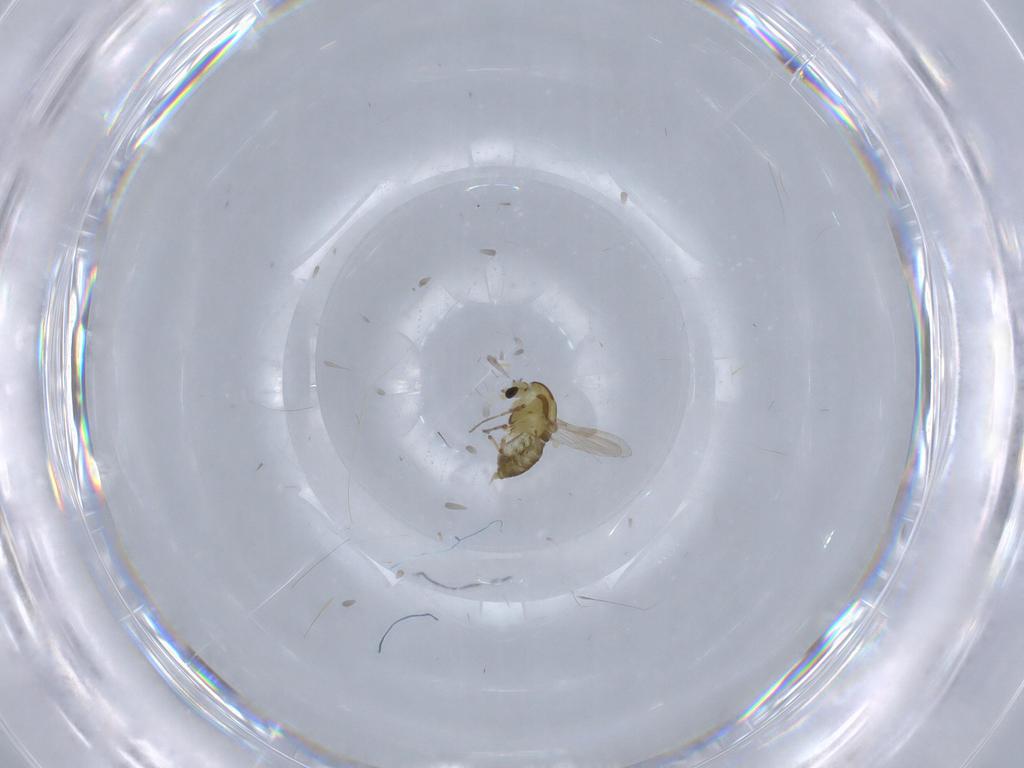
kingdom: Animalia
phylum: Arthropoda
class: Insecta
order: Diptera
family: Chironomidae
